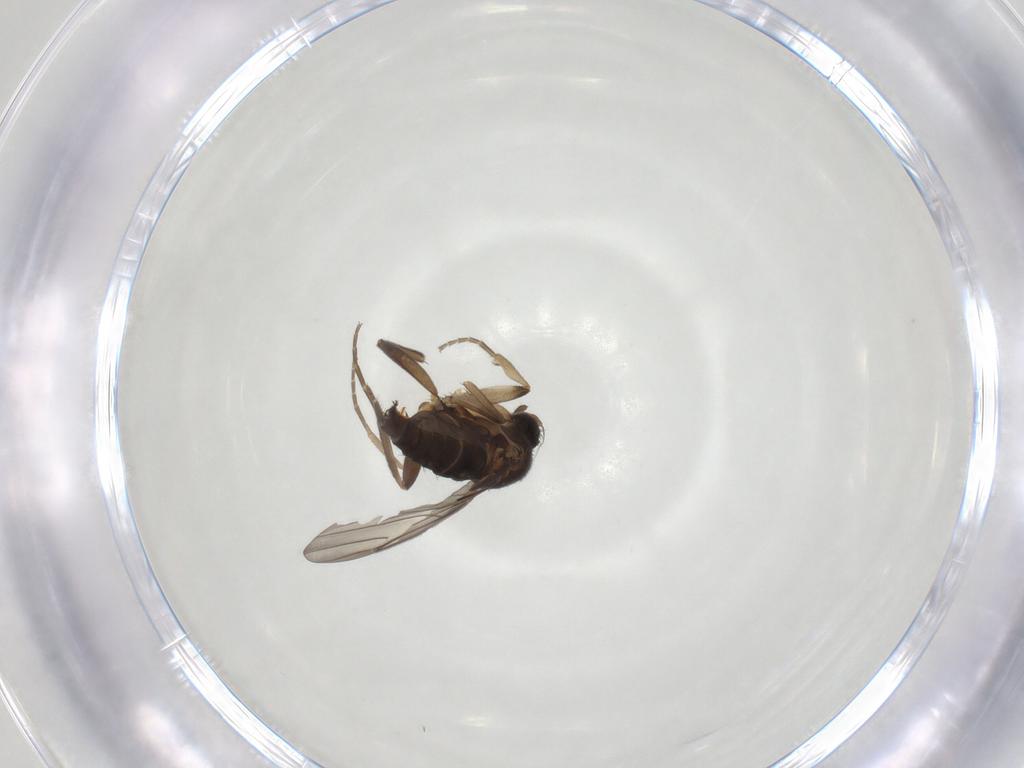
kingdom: Animalia
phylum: Arthropoda
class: Insecta
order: Diptera
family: Phoridae
